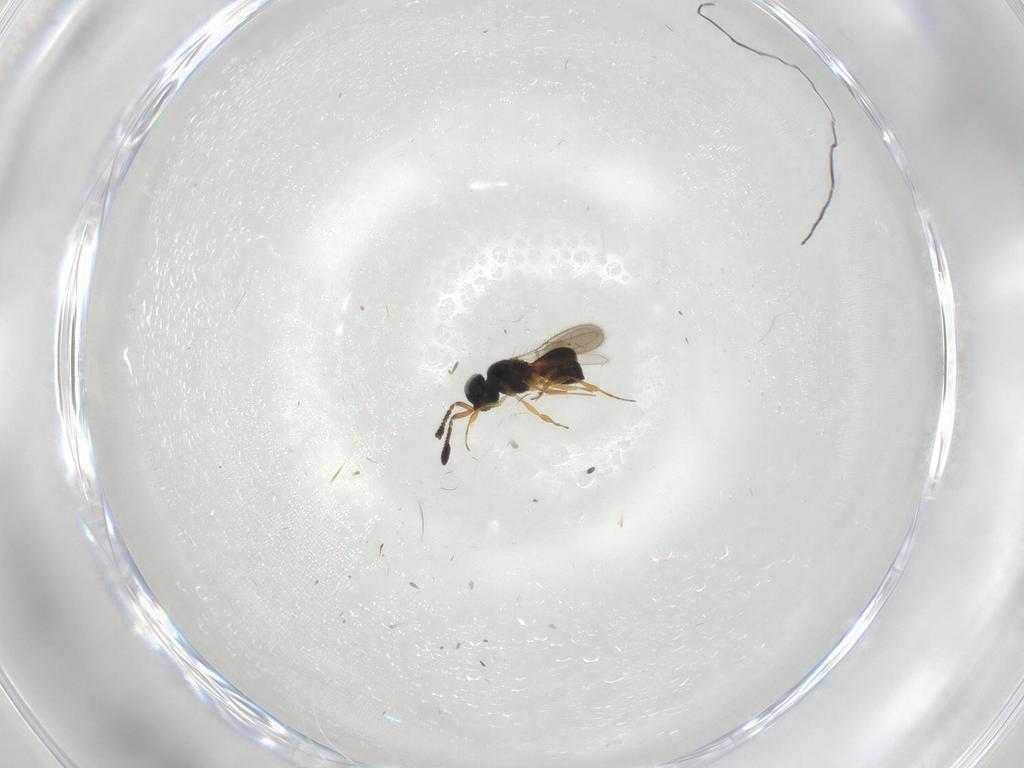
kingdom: Animalia
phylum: Arthropoda
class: Insecta
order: Hymenoptera
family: Scelionidae
